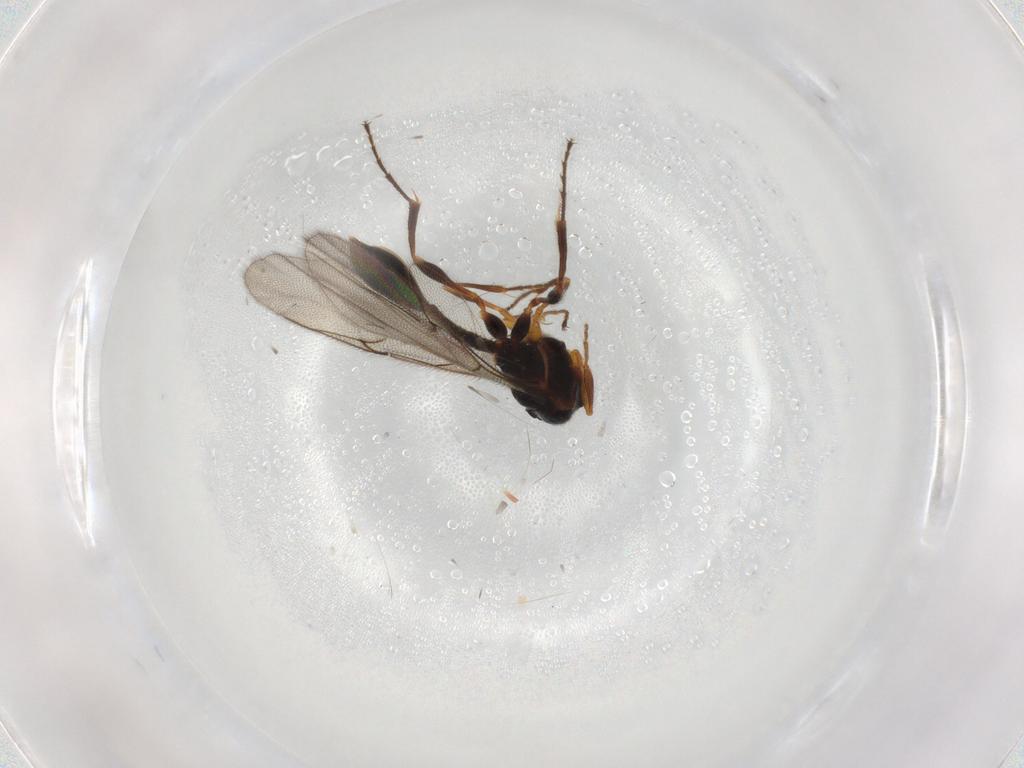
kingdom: Animalia
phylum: Arthropoda
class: Insecta
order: Hymenoptera
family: Diapriidae
